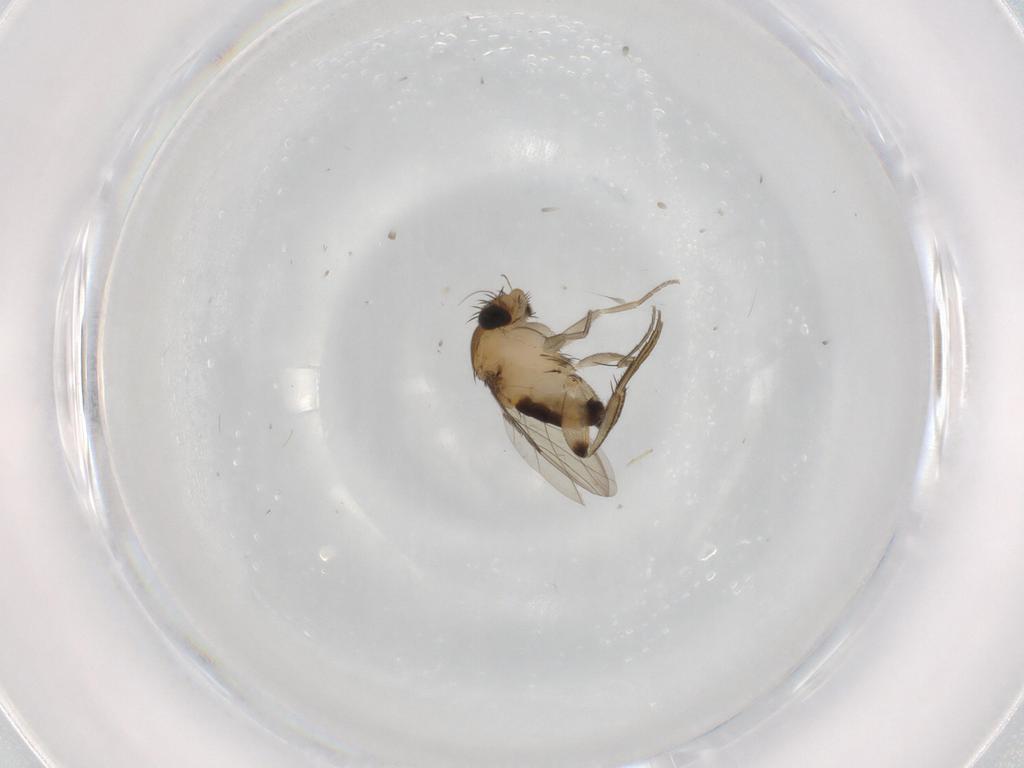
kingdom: Animalia
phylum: Arthropoda
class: Insecta
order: Diptera
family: Phoridae
